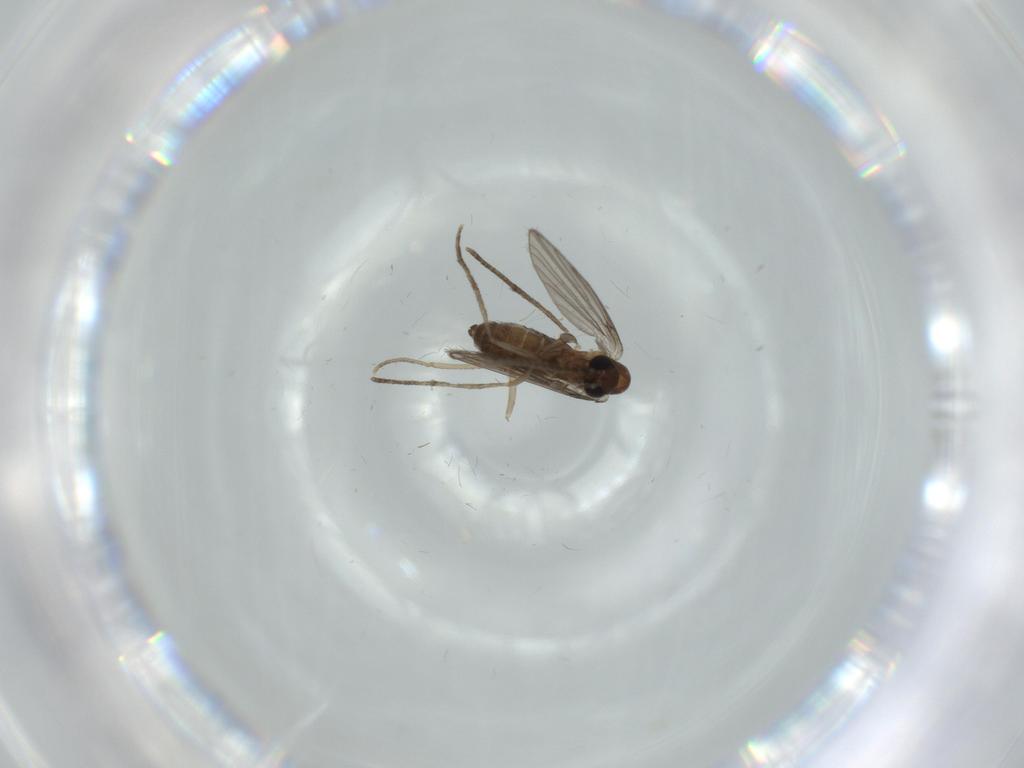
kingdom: Animalia
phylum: Arthropoda
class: Insecta
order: Diptera
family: Psychodidae
